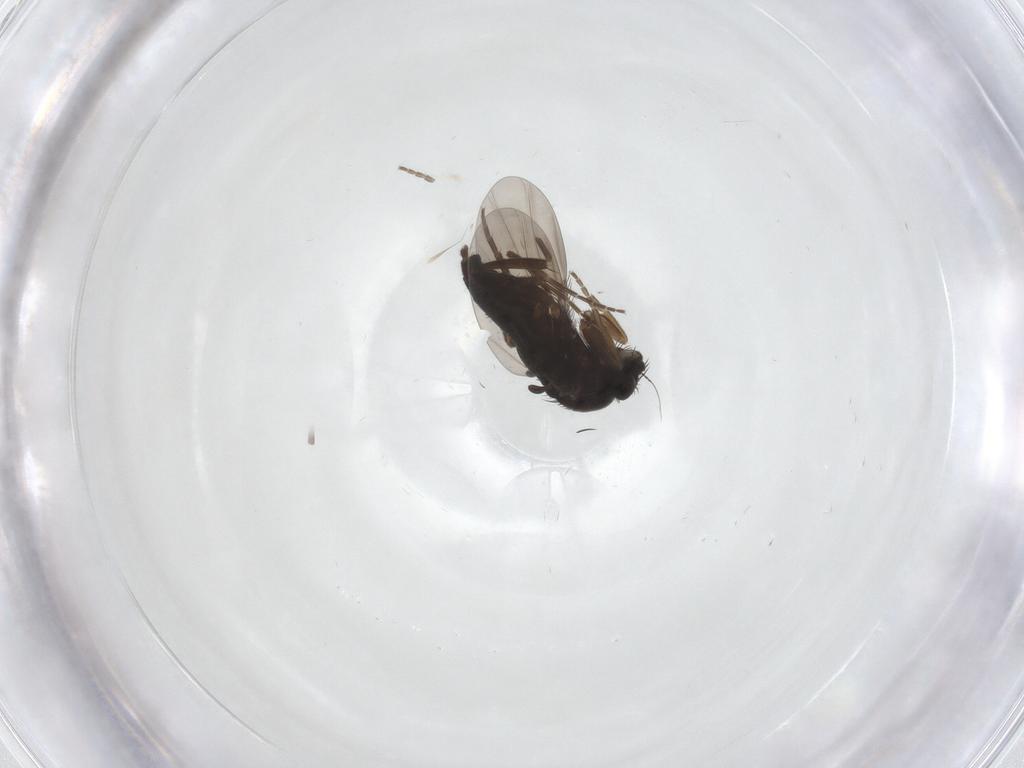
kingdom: Animalia
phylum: Arthropoda
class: Insecta
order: Diptera
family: Phoridae
